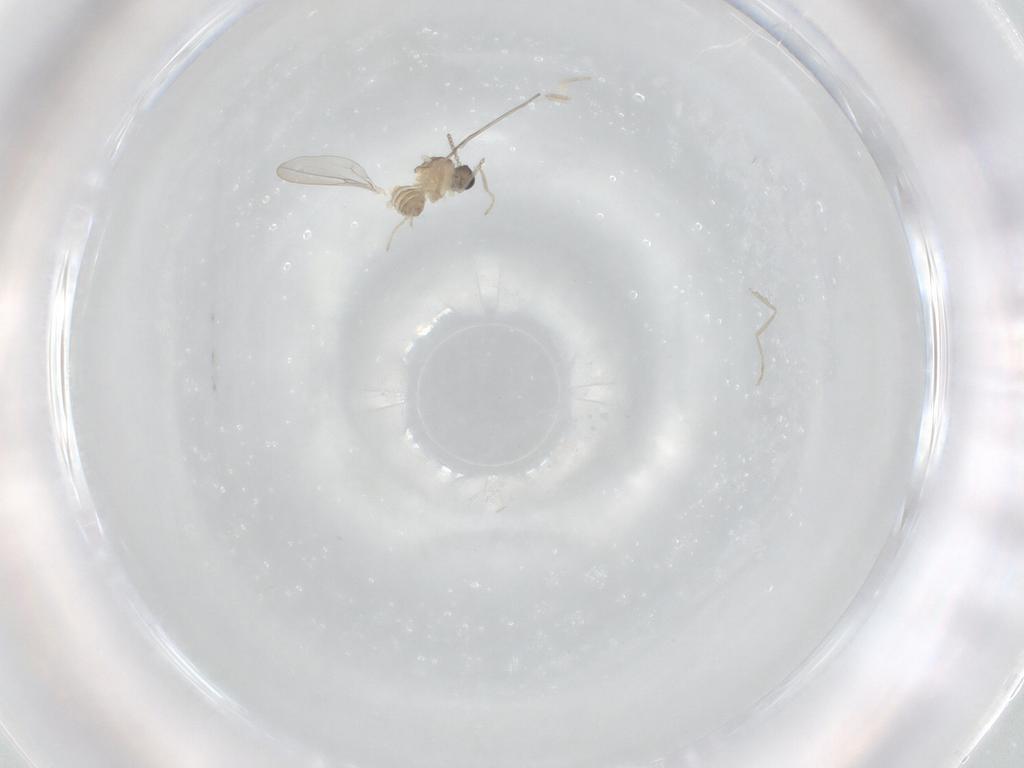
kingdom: Animalia
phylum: Arthropoda
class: Insecta
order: Diptera
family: Cecidomyiidae
